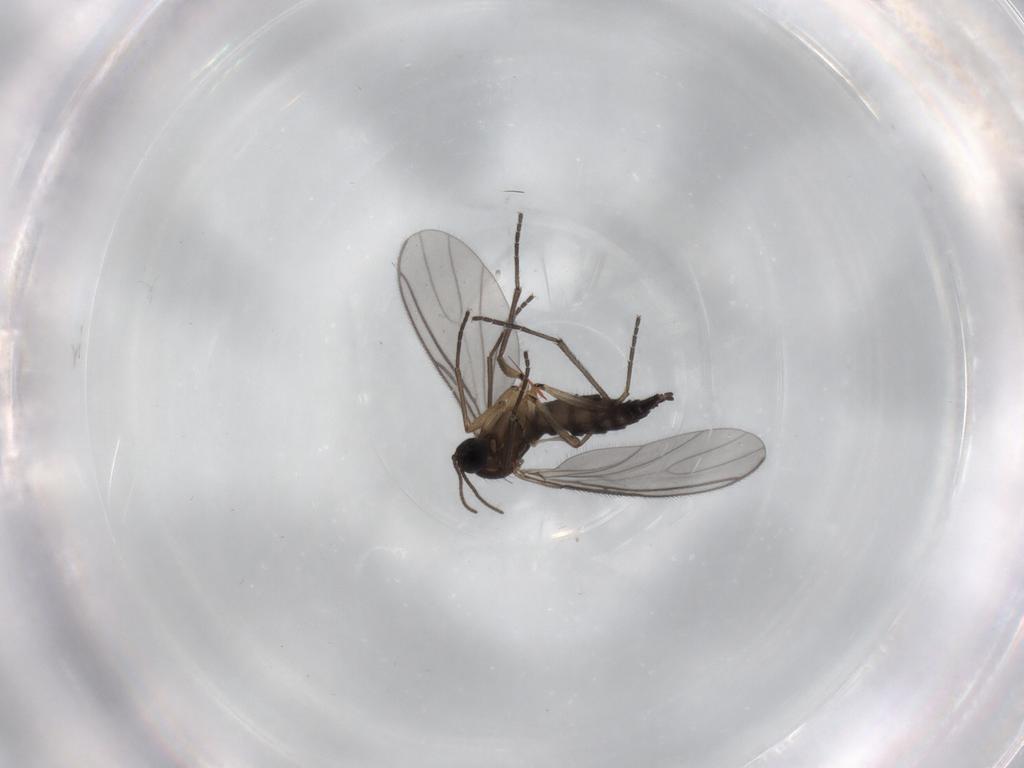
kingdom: Animalia
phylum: Arthropoda
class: Insecta
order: Diptera
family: Sciaridae
